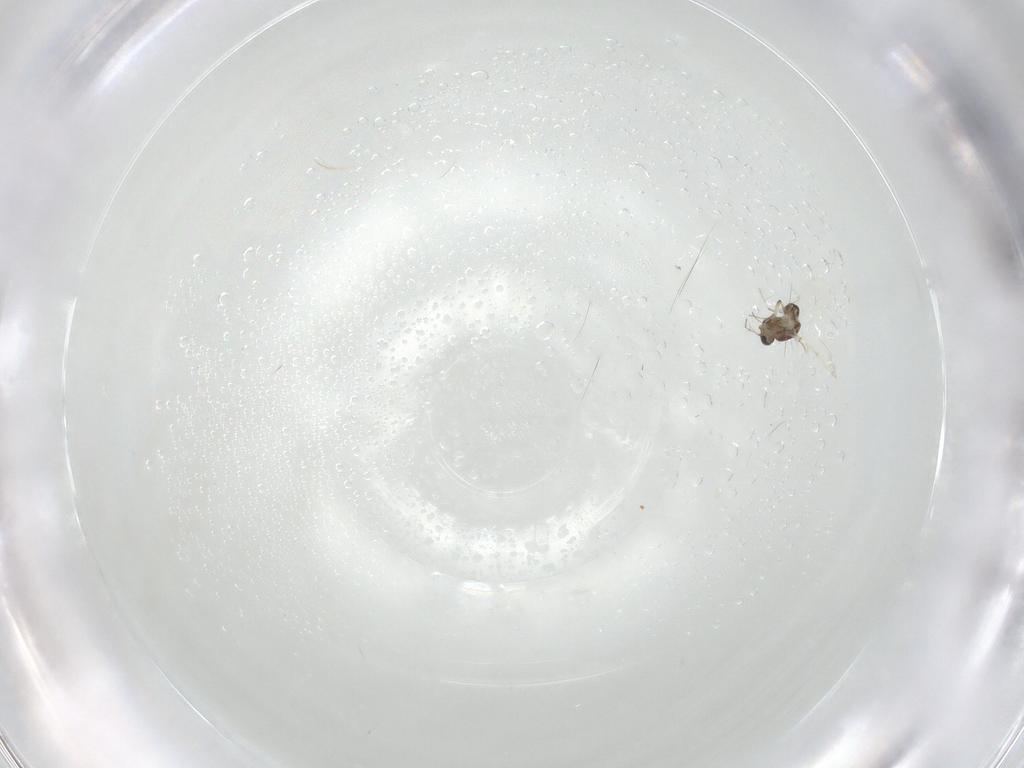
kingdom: Animalia
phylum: Arthropoda
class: Insecta
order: Diptera
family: Ceratopogonidae
